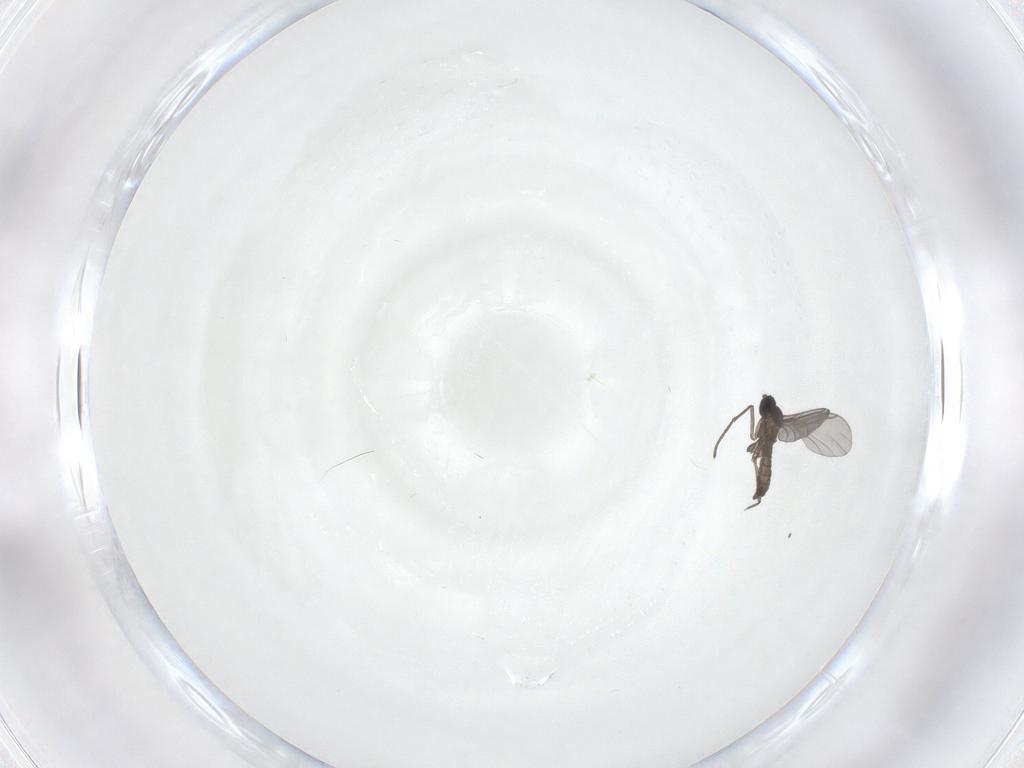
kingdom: Animalia
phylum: Arthropoda
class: Insecta
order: Diptera
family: Sciaridae
